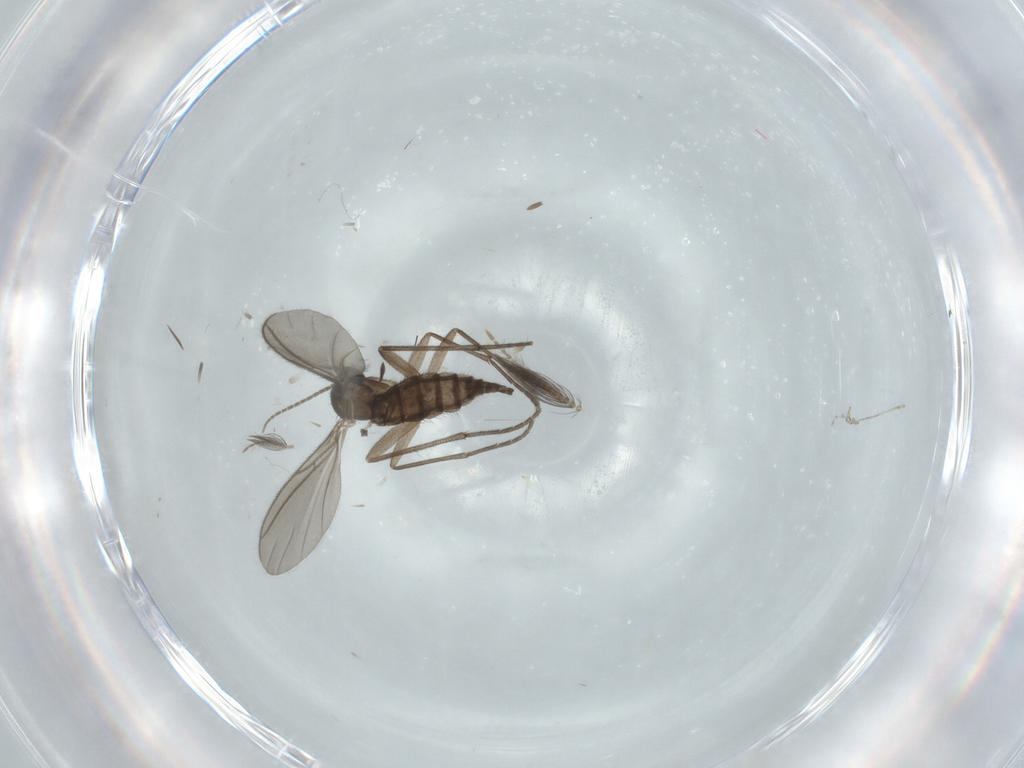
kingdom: Animalia
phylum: Arthropoda
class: Insecta
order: Diptera
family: Ceratopogonidae
